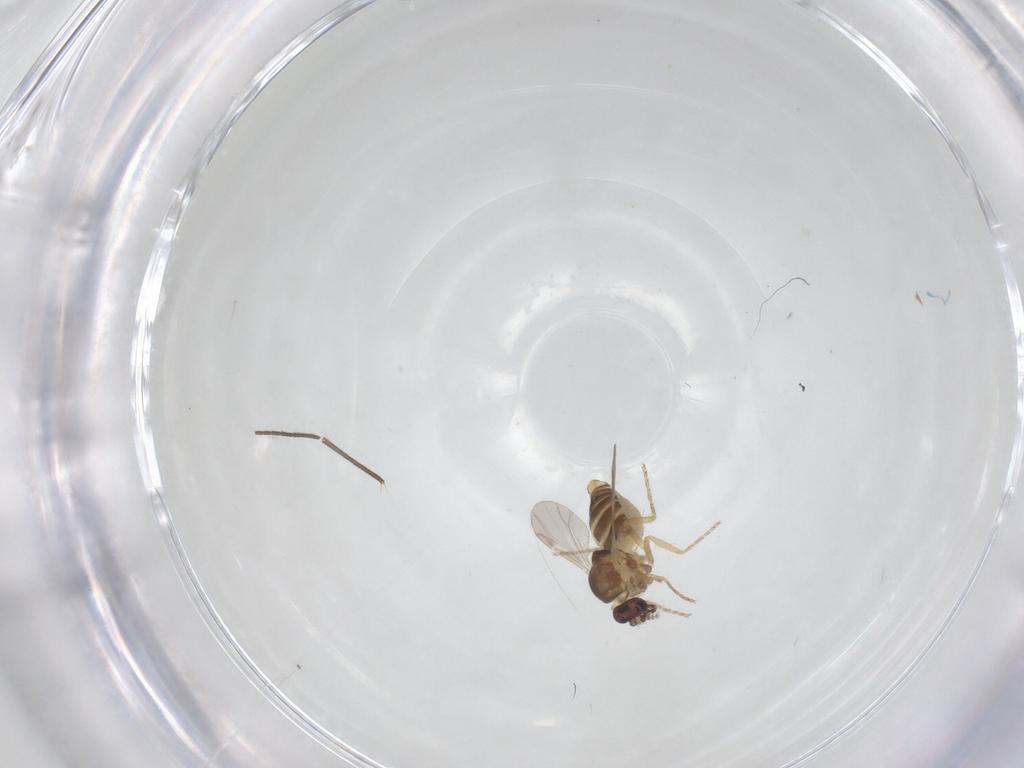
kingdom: Animalia
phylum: Arthropoda
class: Insecta
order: Diptera
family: Ceratopogonidae
